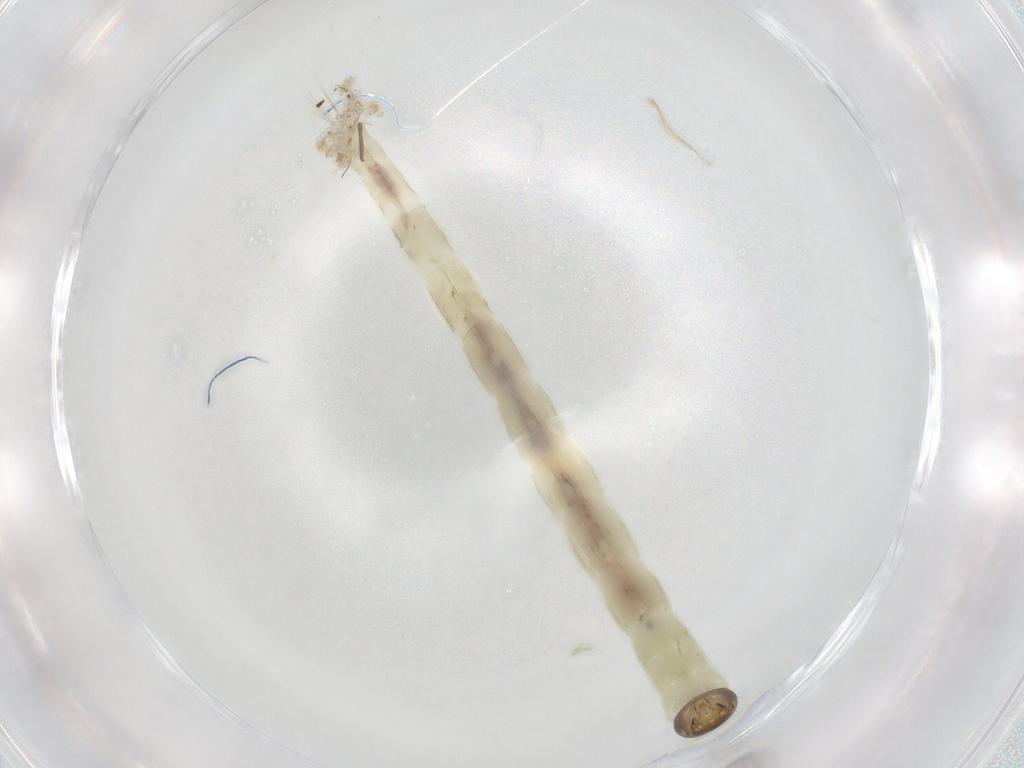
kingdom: Animalia
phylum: Arthropoda
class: Insecta
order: Diptera
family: Chironomidae
